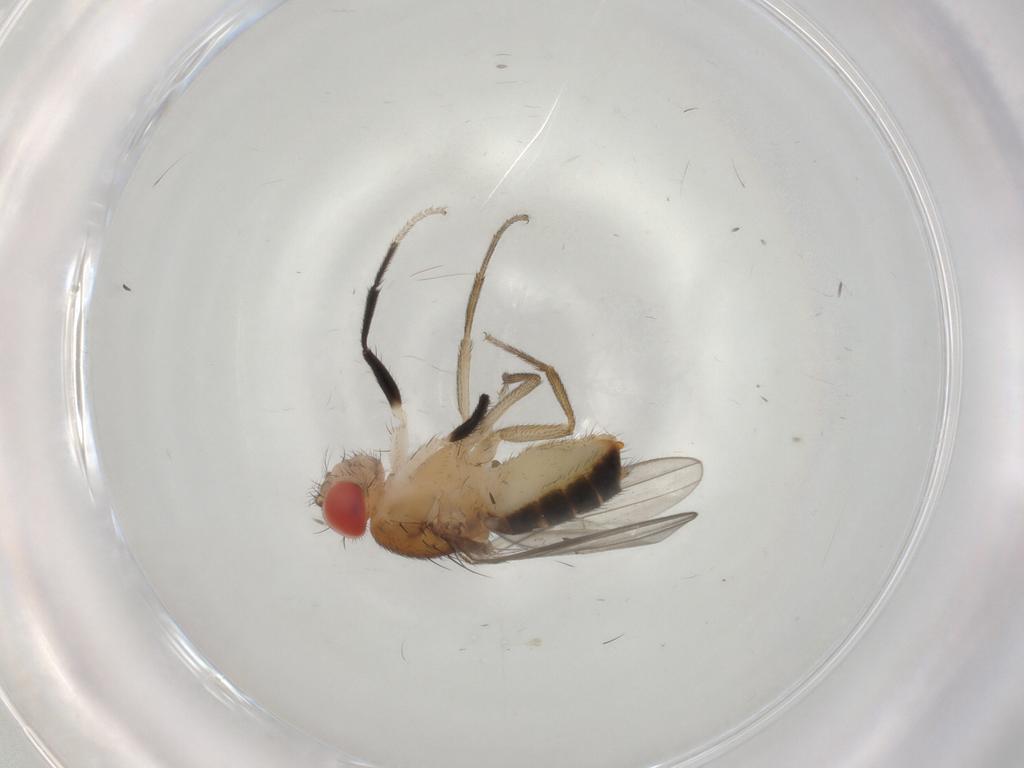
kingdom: Animalia
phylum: Arthropoda
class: Insecta
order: Diptera
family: Drosophilidae
